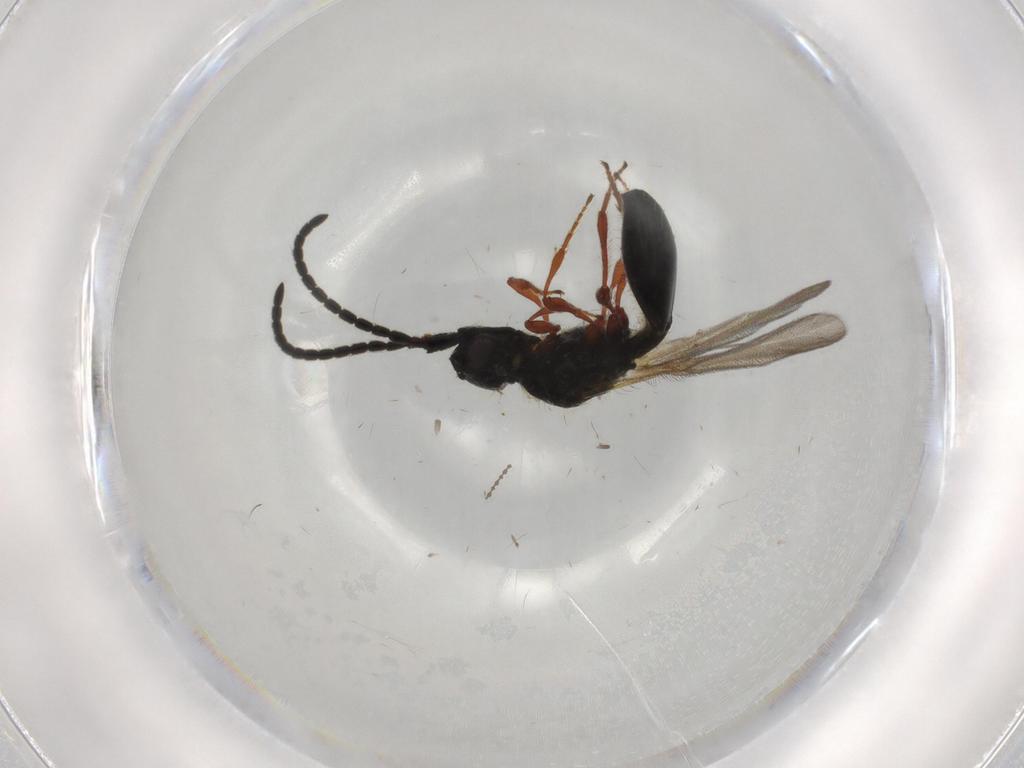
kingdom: Animalia
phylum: Arthropoda
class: Insecta
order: Hymenoptera
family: Diapriidae
